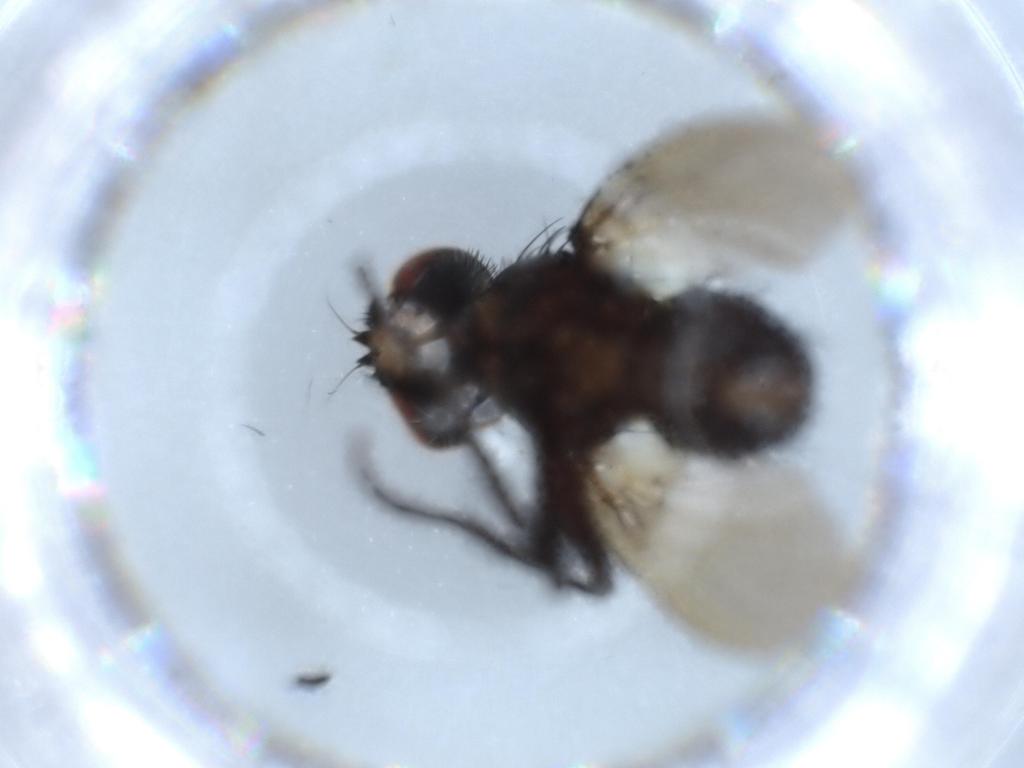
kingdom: Animalia
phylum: Arthropoda
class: Insecta
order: Diptera
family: Tachinidae
